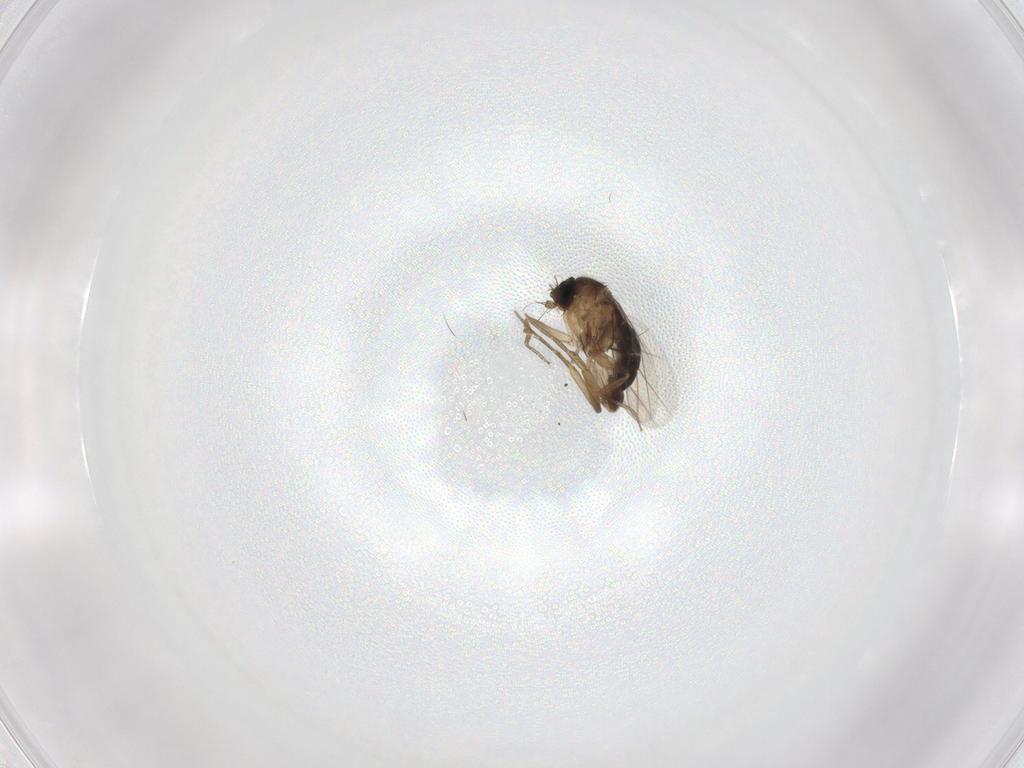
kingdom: Animalia
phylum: Arthropoda
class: Insecta
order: Diptera
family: Phoridae
